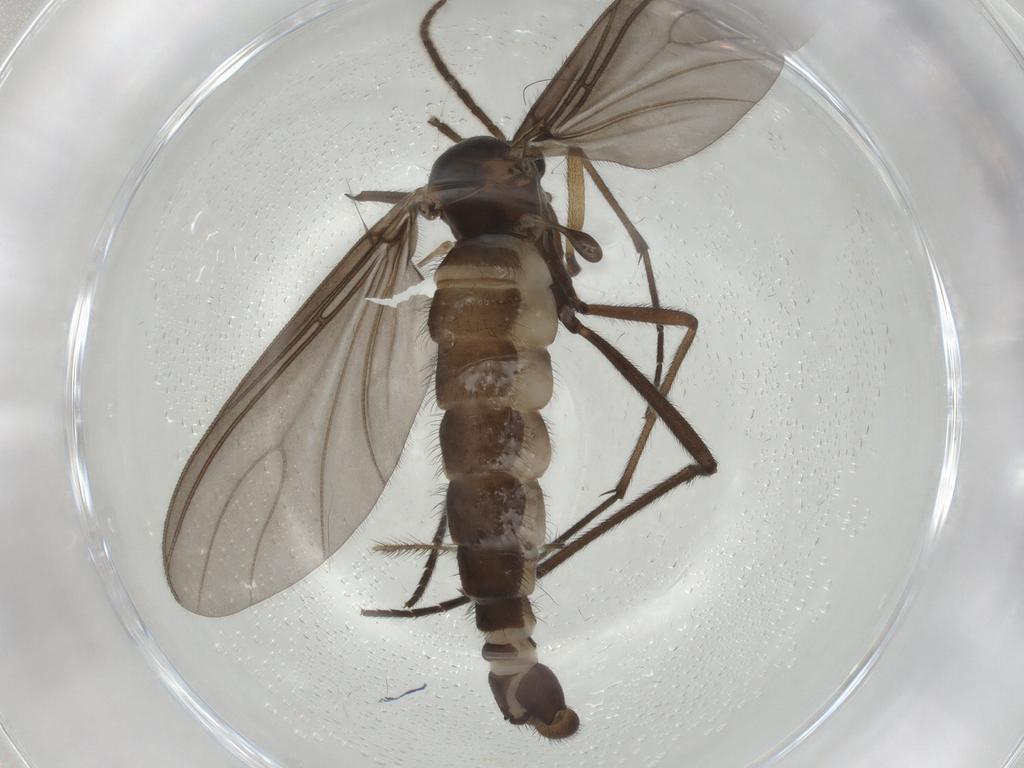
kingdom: Animalia
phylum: Arthropoda
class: Insecta
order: Diptera
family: Sciaridae
